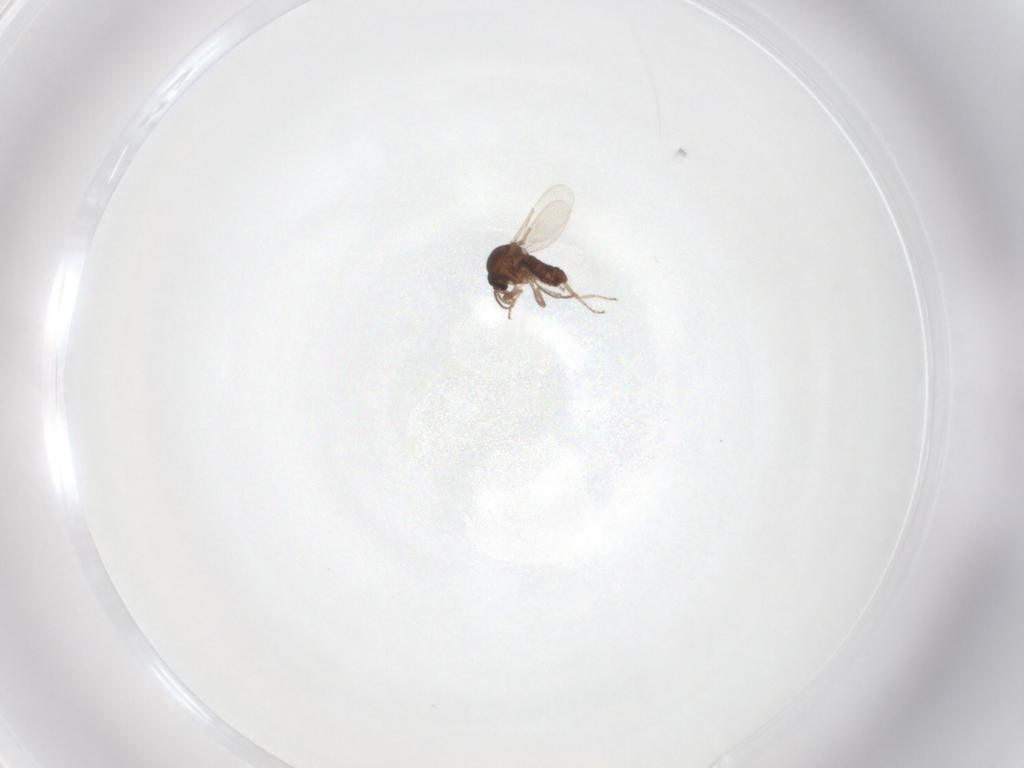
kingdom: Animalia
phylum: Arthropoda
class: Insecta
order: Diptera
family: Ceratopogonidae
